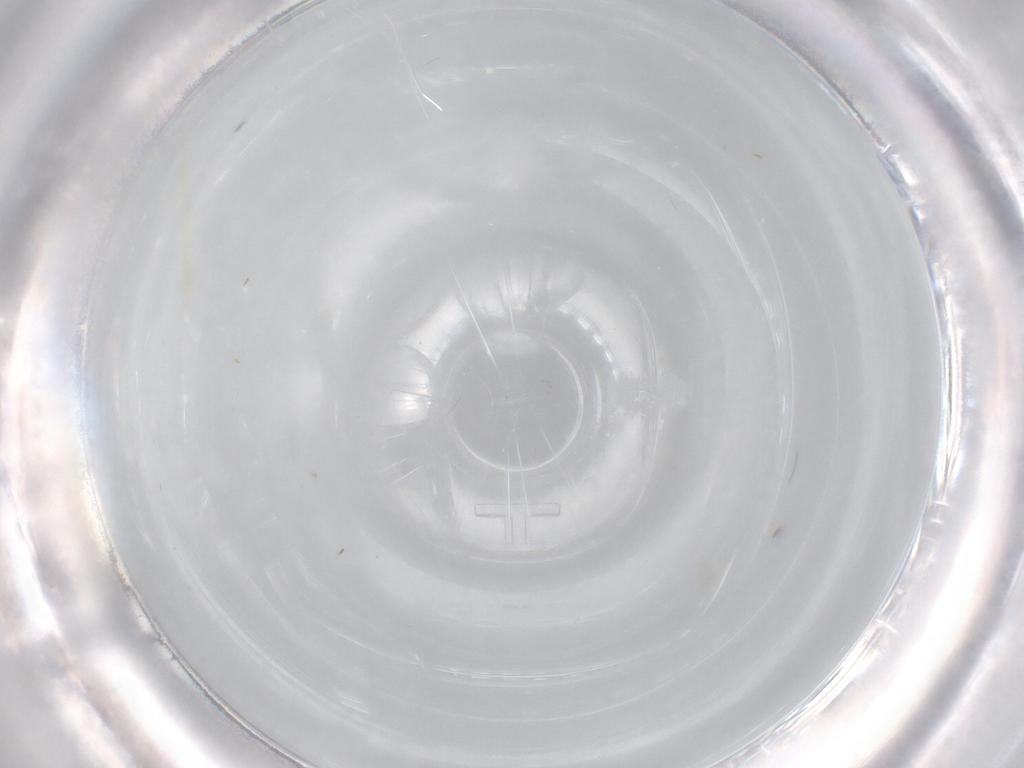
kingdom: Animalia
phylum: Arthropoda
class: Insecta
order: Diptera
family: Cecidomyiidae
